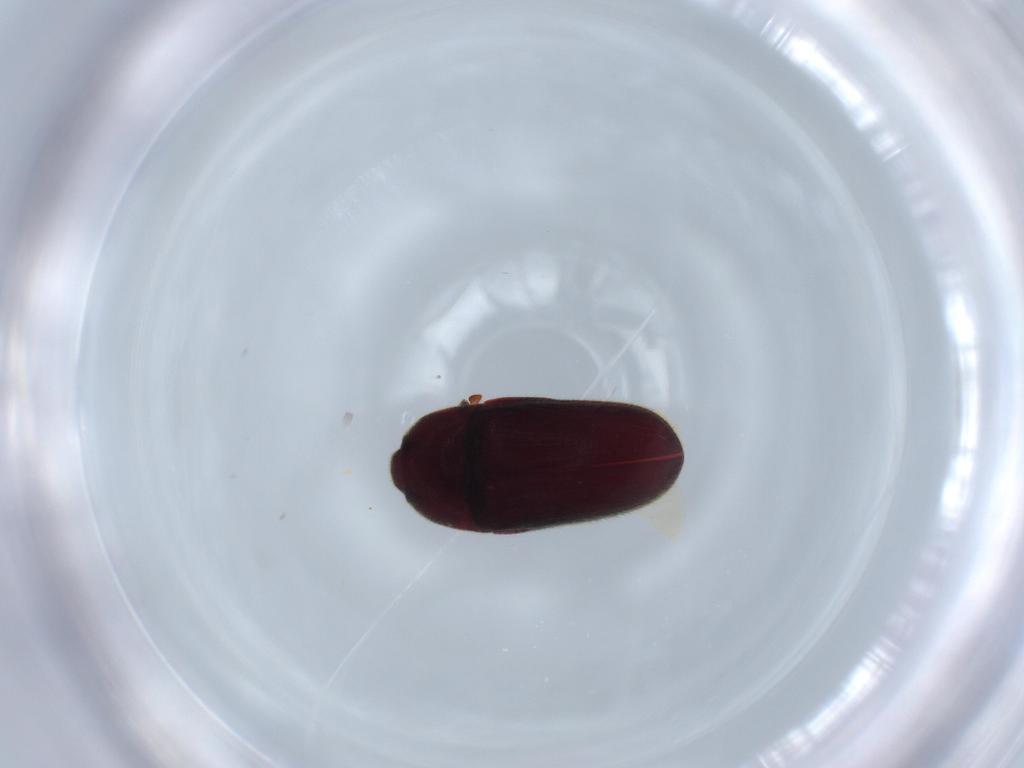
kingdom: Animalia
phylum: Arthropoda
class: Insecta
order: Coleoptera
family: Throscidae
